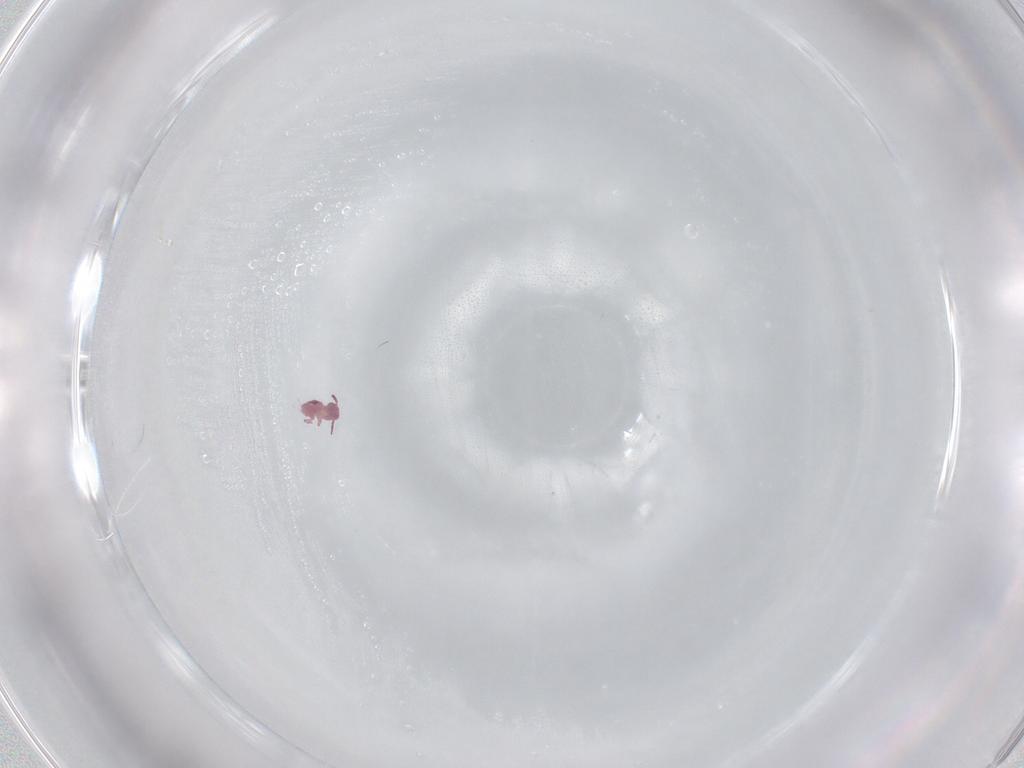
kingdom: Animalia
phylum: Arthropoda
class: Collembola
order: Symphypleona
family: Sminthurididae
